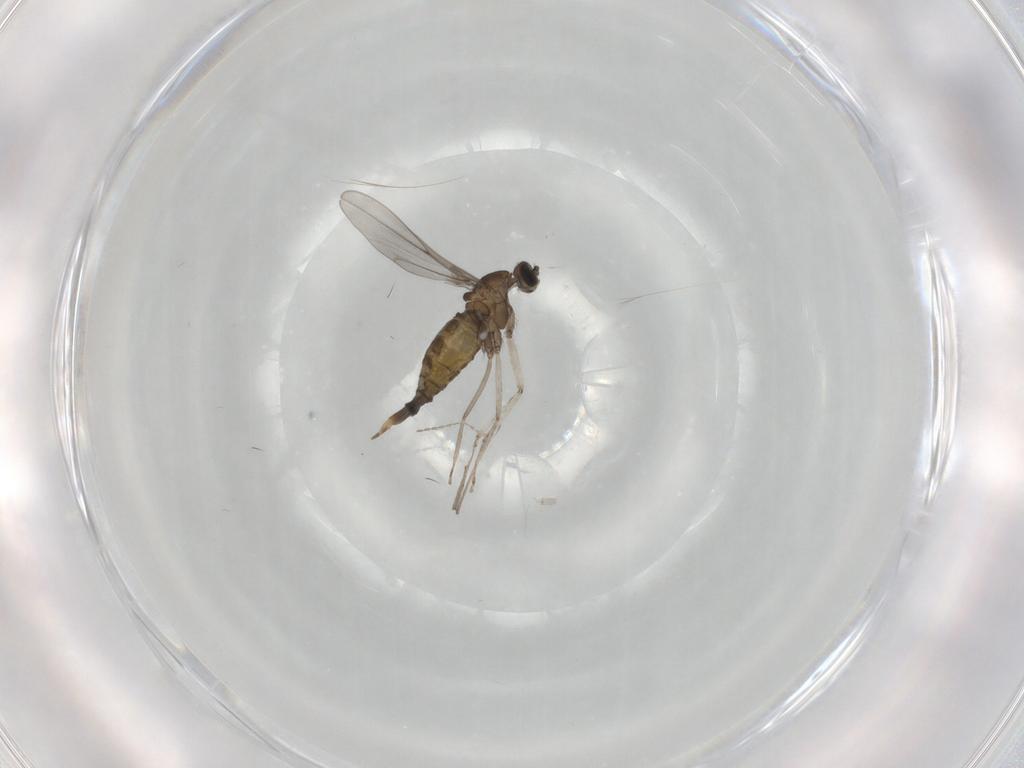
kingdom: Animalia
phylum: Arthropoda
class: Insecta
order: Diptera
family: Cecidomyiidae
